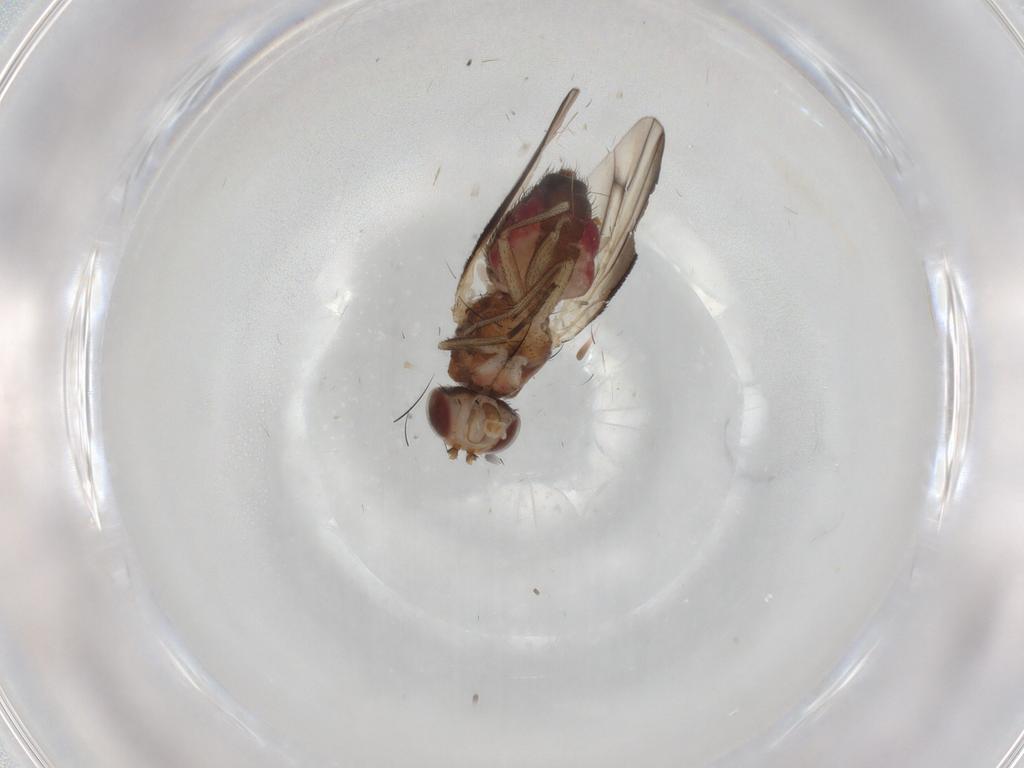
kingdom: Animalia
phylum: Arthropoda
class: Insecta
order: Diptera
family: Heleomyzidae
